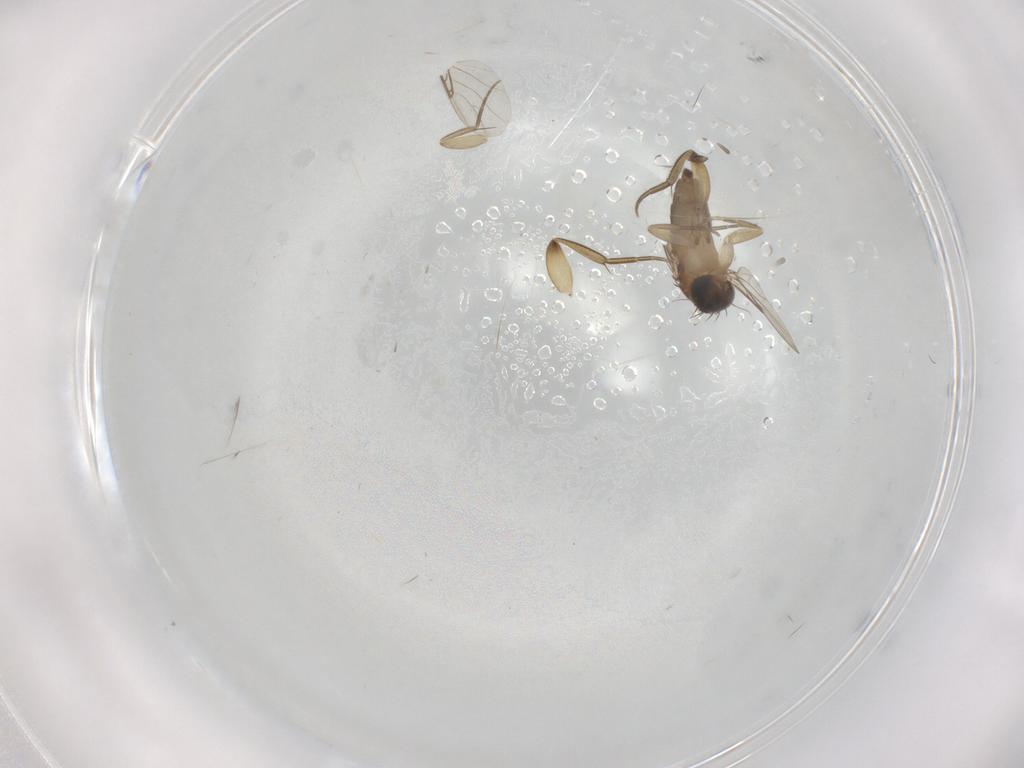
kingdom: Animalia
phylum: Arthropoda
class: Insecta
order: Diptera
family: Phoridae
